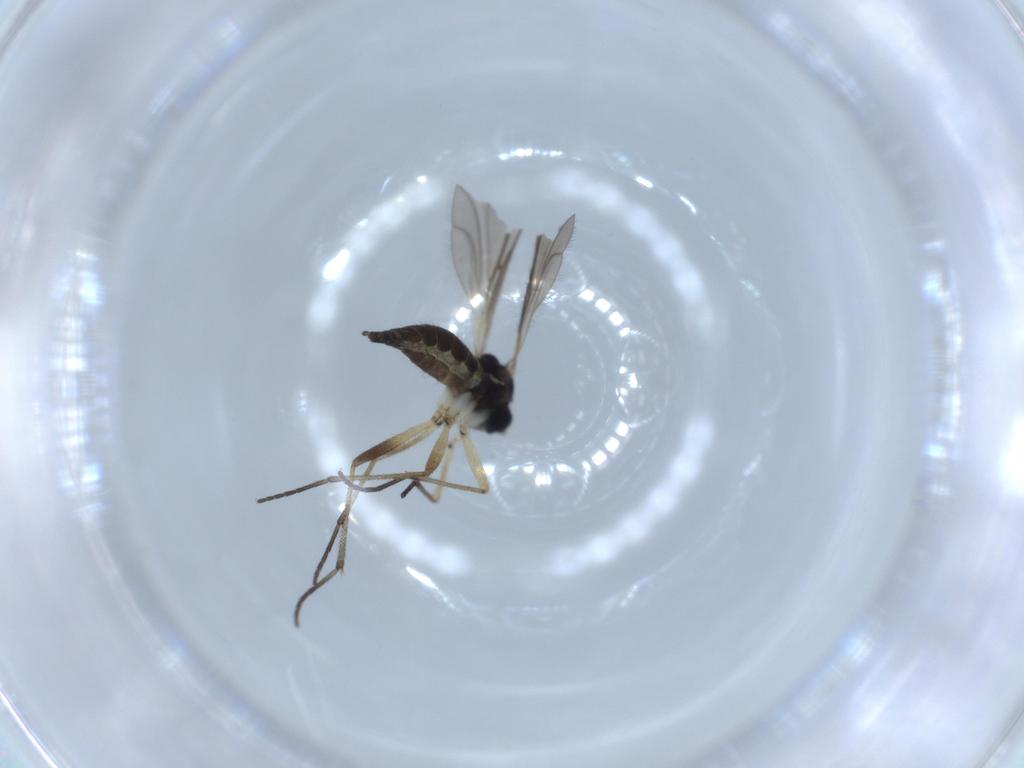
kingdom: Animalia
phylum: Arthropoda
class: Insecta
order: Diptera
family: Sciaridae
